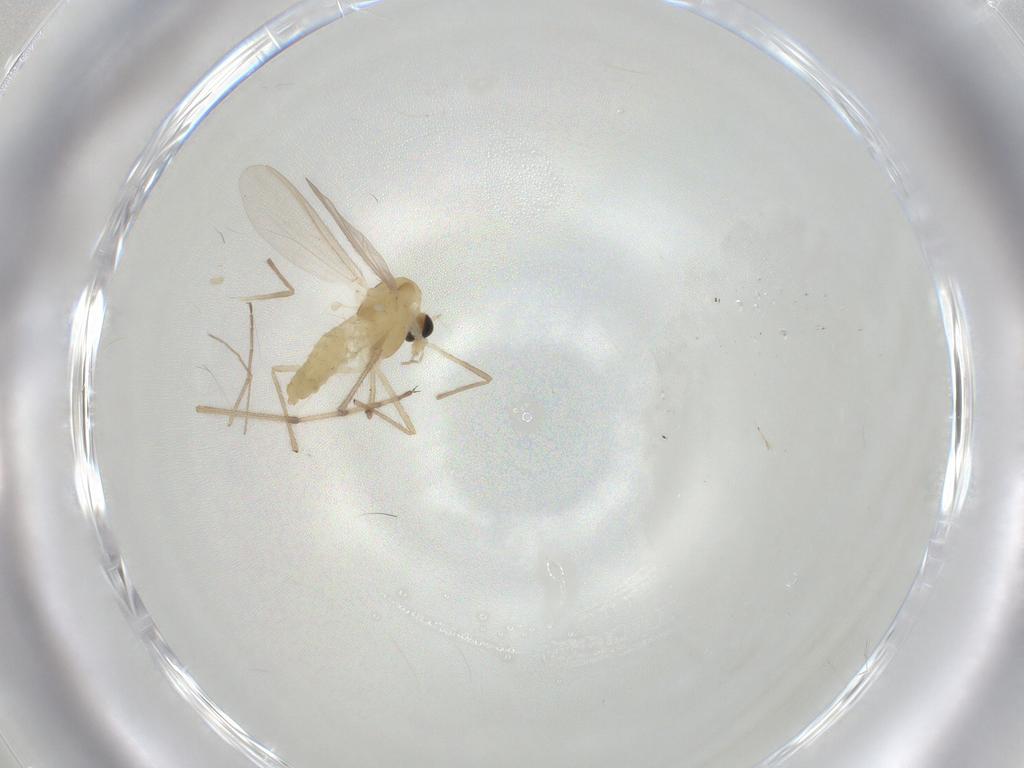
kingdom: Animalia
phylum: Arthropoda
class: Insecta
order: Diptera
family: Chironomidae
